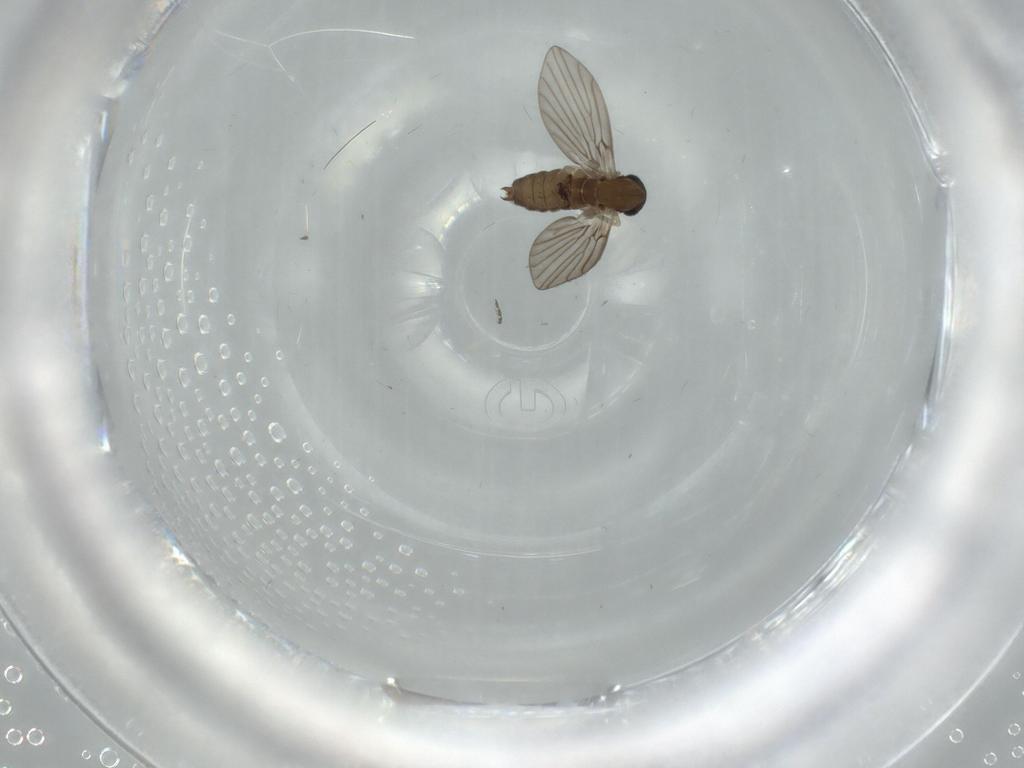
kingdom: Animalia
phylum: Arthropoda
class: Insecta
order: Diptera
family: Psychodidae
